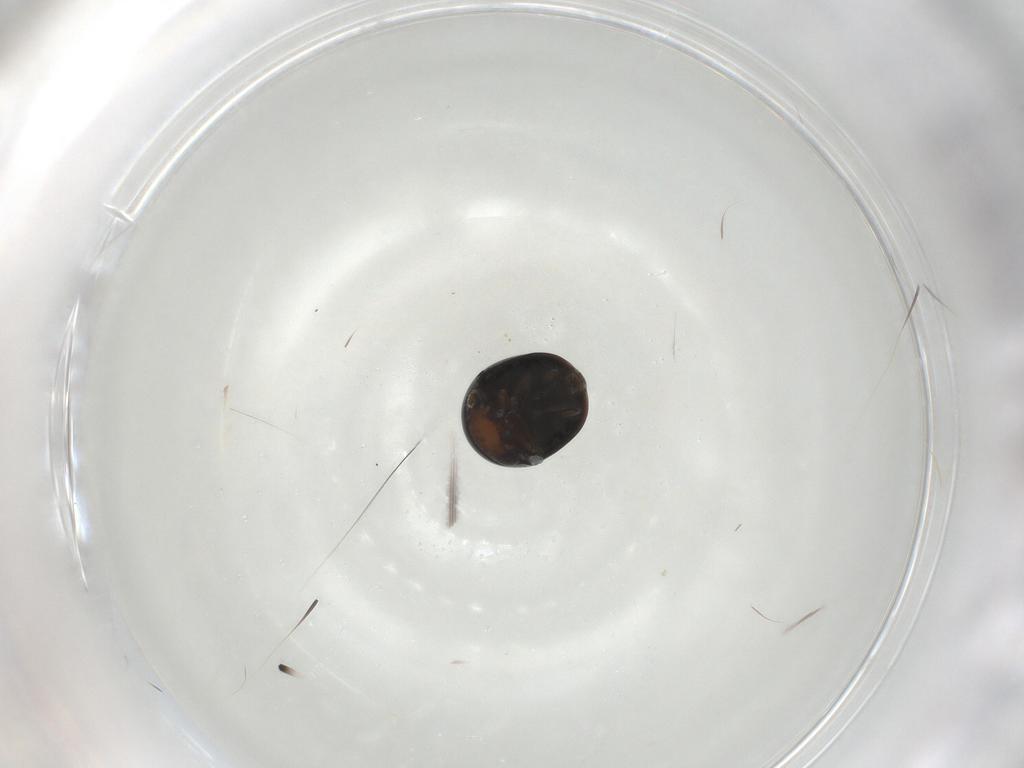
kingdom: Animalia
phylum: Arthropoda
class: Insecta
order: Coleoptera
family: Cybocephalidae
